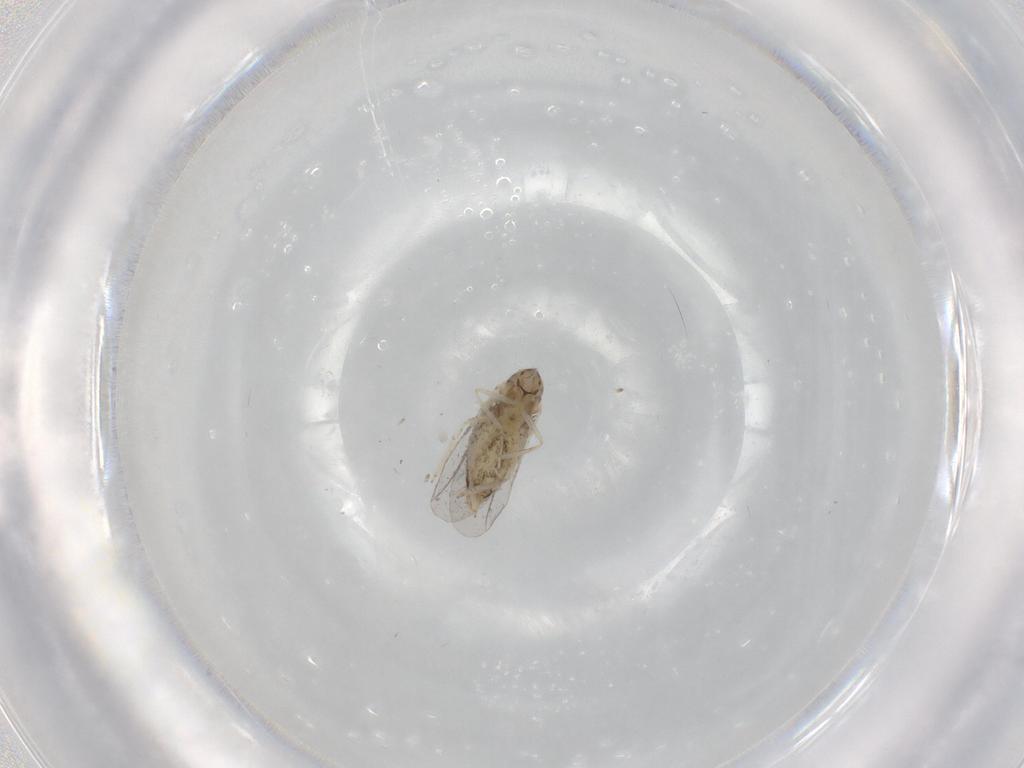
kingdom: Animalia
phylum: Arthropoda
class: Insecta
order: Diptera
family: Cecidomyiidae
